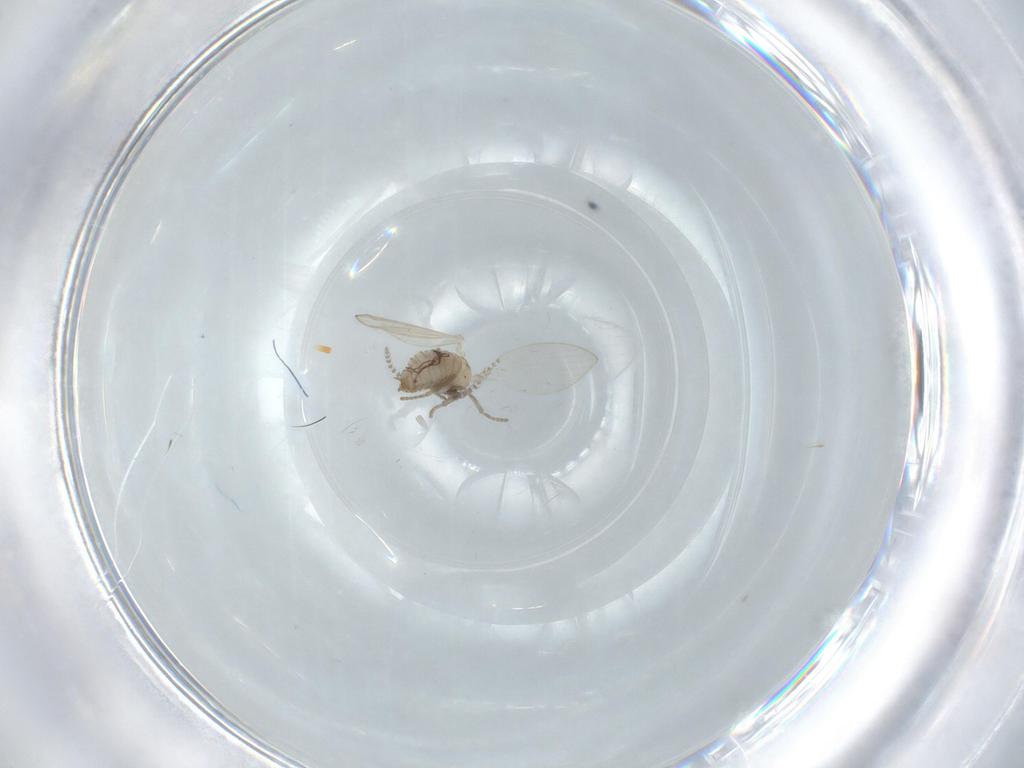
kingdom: Animalia
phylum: Arthropoda
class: Insecta
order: Diptera
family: Psychodidae
